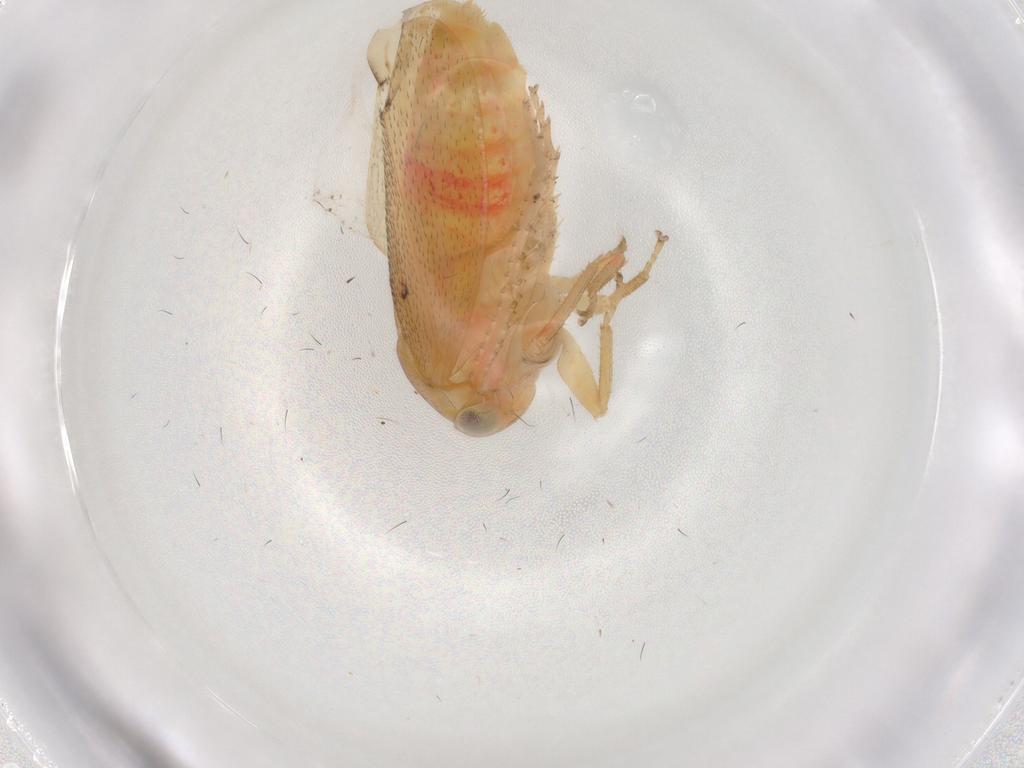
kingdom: Animalia
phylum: Arthropoda
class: Insecta
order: Hemiptera
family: Cicadellidae
